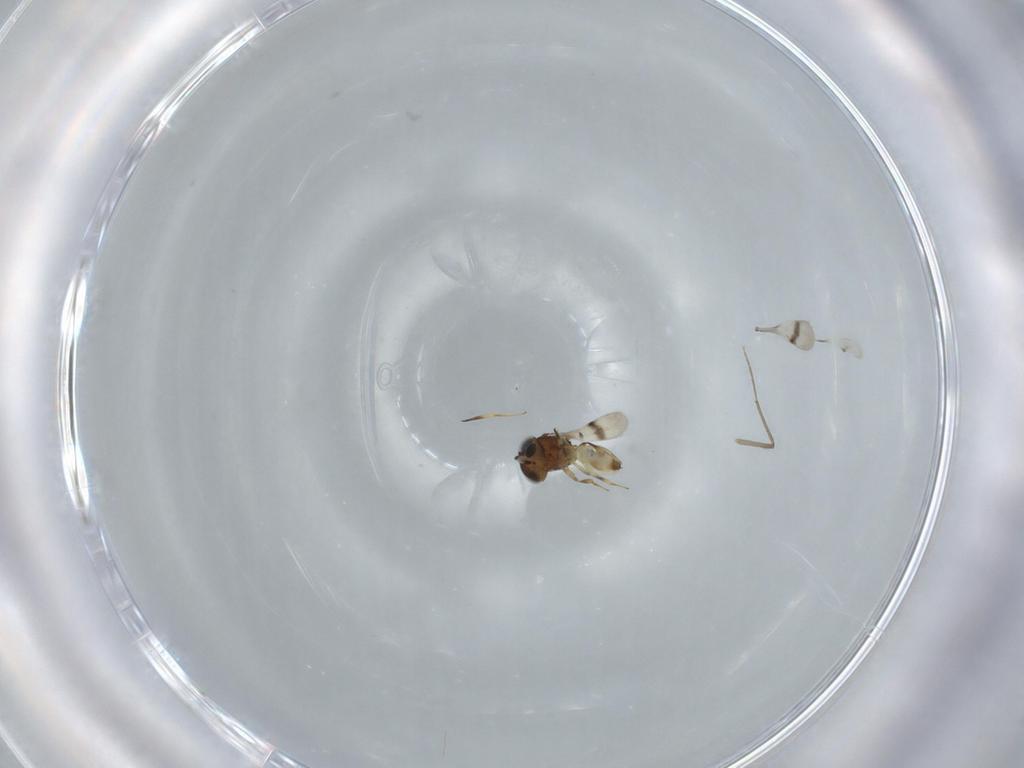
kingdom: Animalia
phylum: Arthropoda
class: Arachnida
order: Araneae
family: Pholcidae
